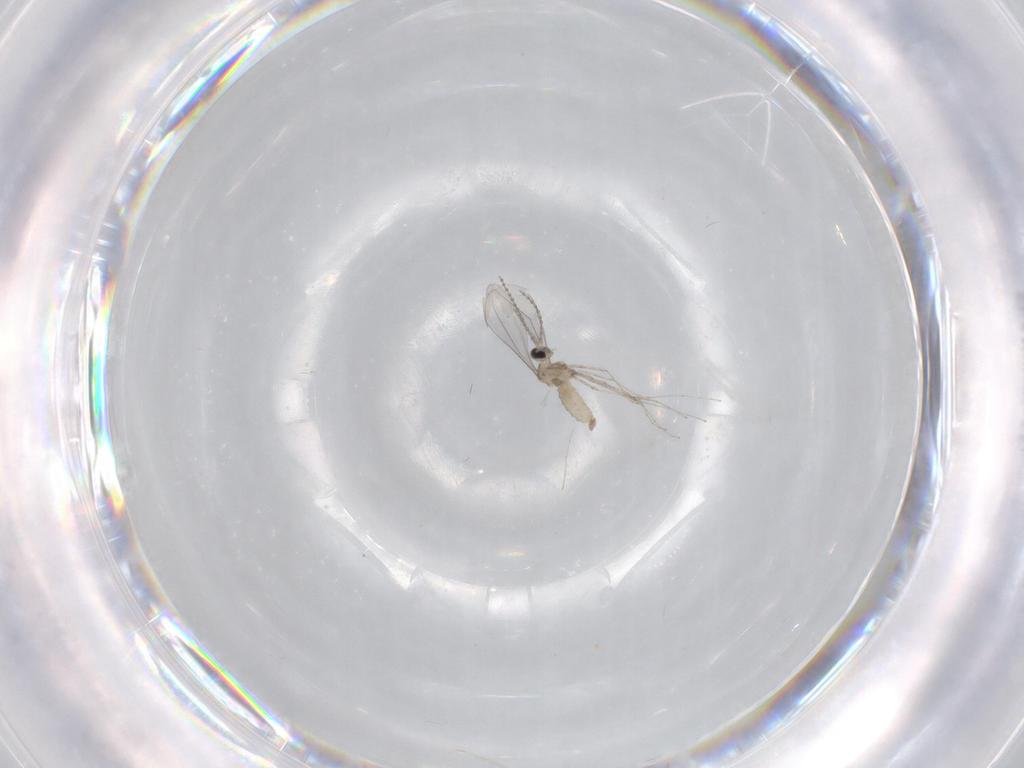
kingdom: Animalia
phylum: Arthropoda
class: Insecta
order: Diptera
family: Cecidomyiidae
